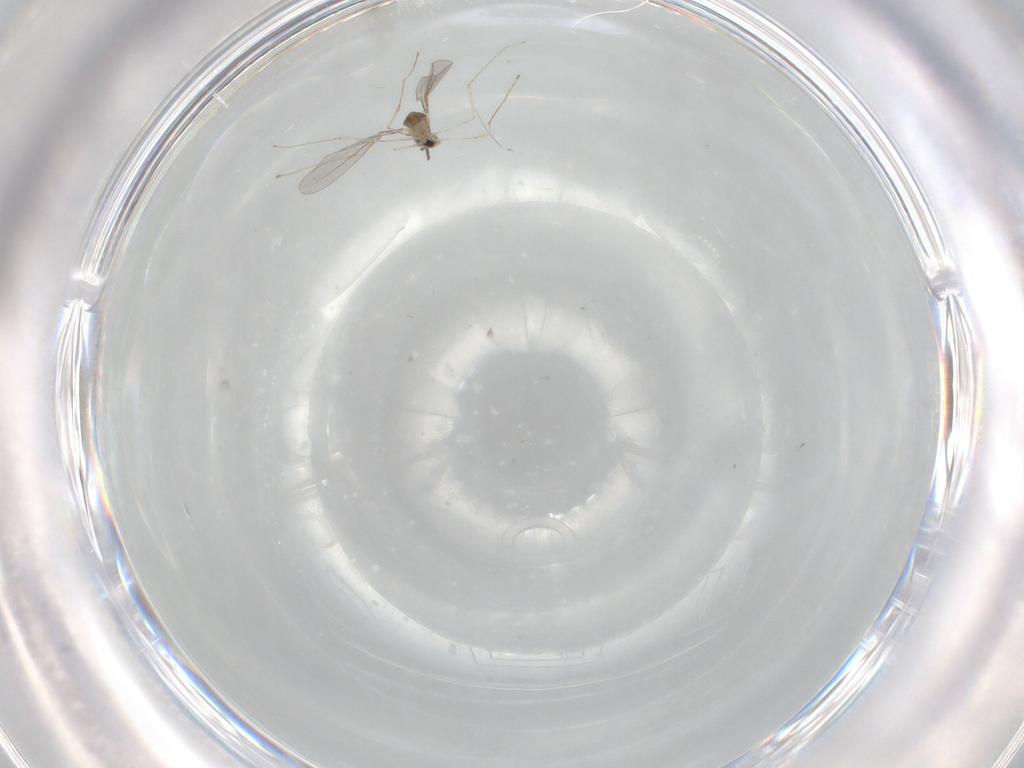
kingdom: Animalia
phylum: Arthropoda
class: Insecta
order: Diptera
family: Cecidomyiidae
